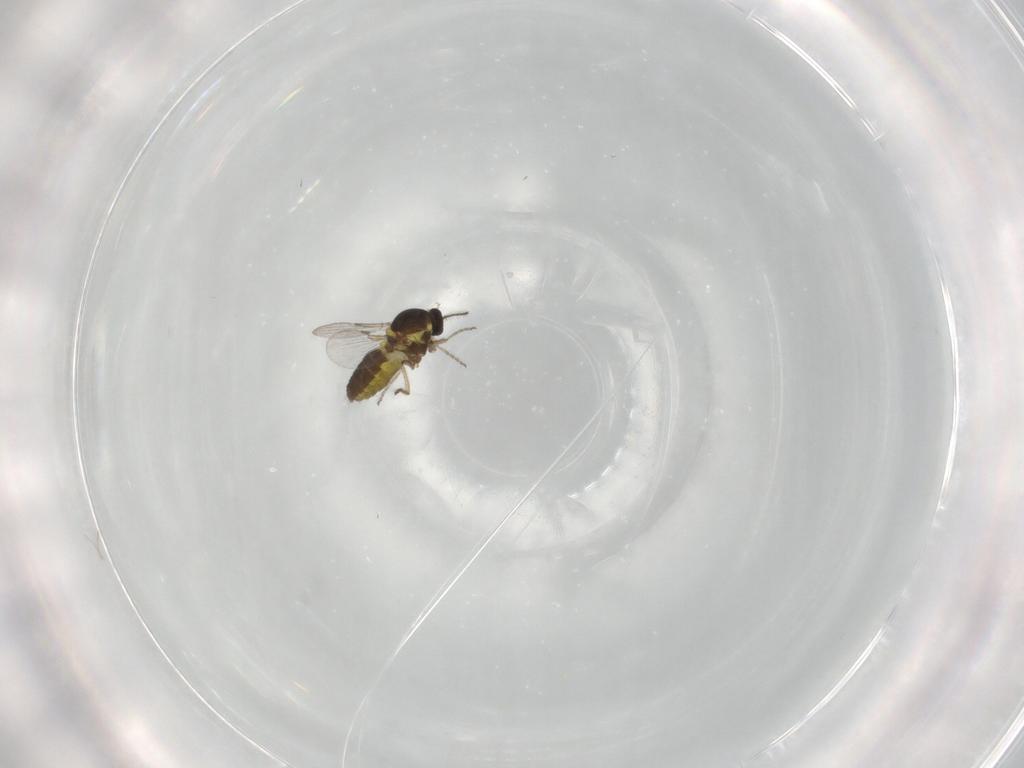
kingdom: Animalia
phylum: Arthropoda
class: Insecta
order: Diptera
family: Ceratopogonidae
